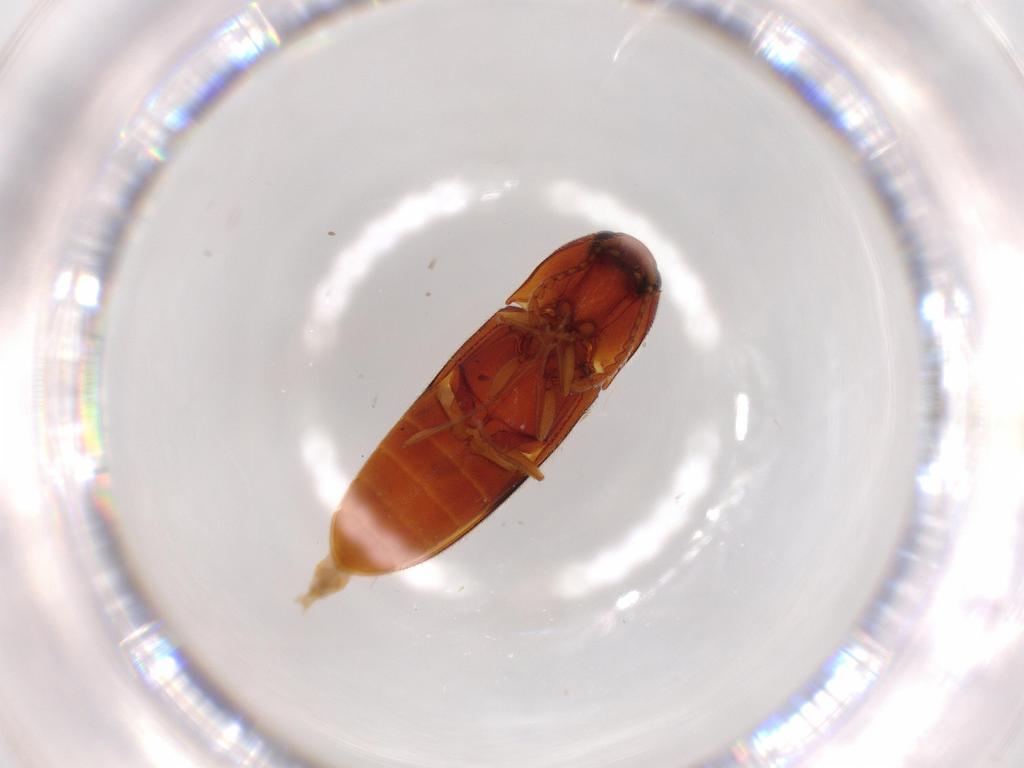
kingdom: Animalia
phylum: Arthropoda
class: Insecta
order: Coleoptera
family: Elateridae
